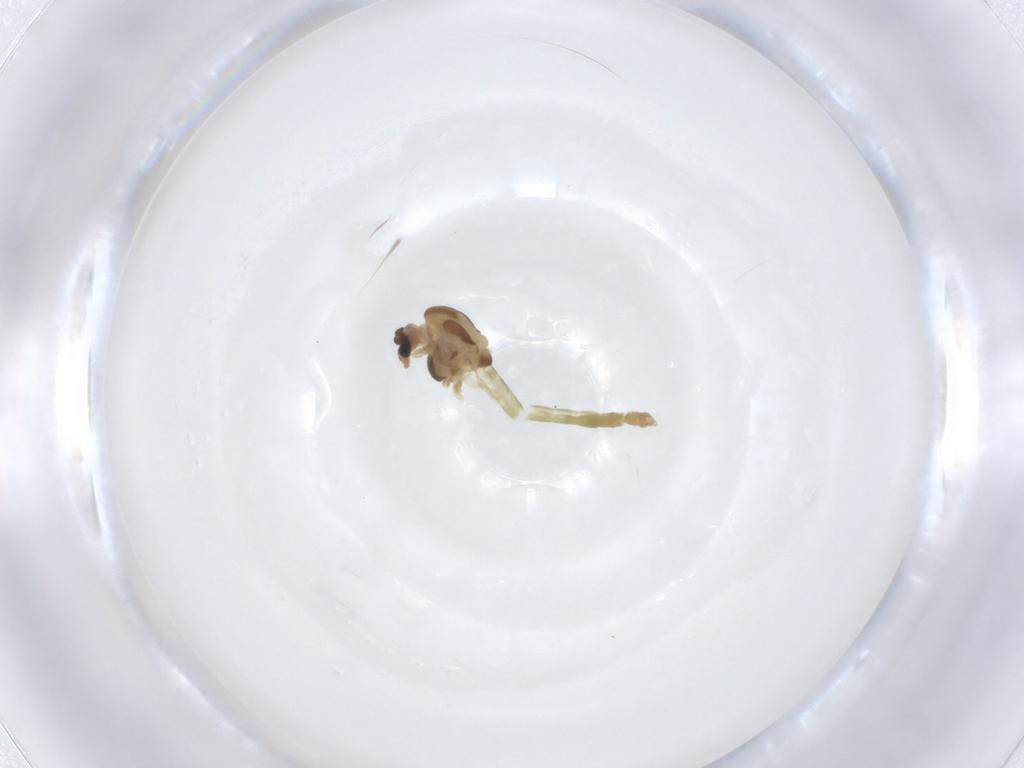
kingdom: Animalia
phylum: Arthropoda
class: Insecta
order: Diptera
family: Chironomidae
